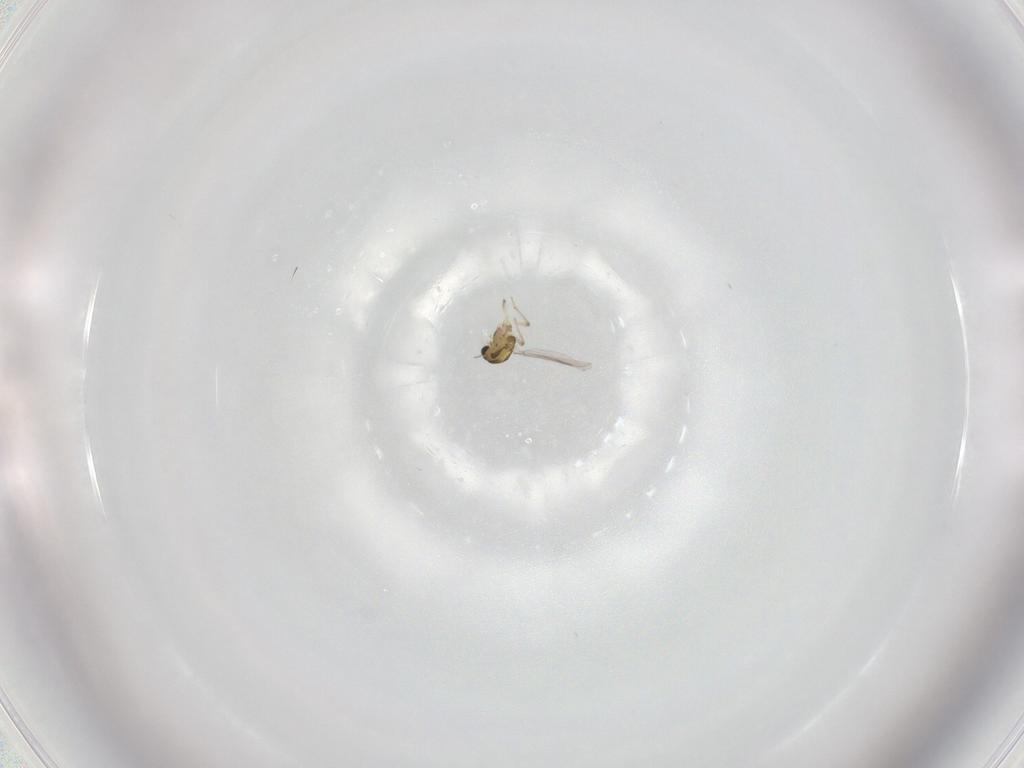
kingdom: Animalia
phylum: Arthropoda
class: Insecta
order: Diptera
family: Chironomidae
